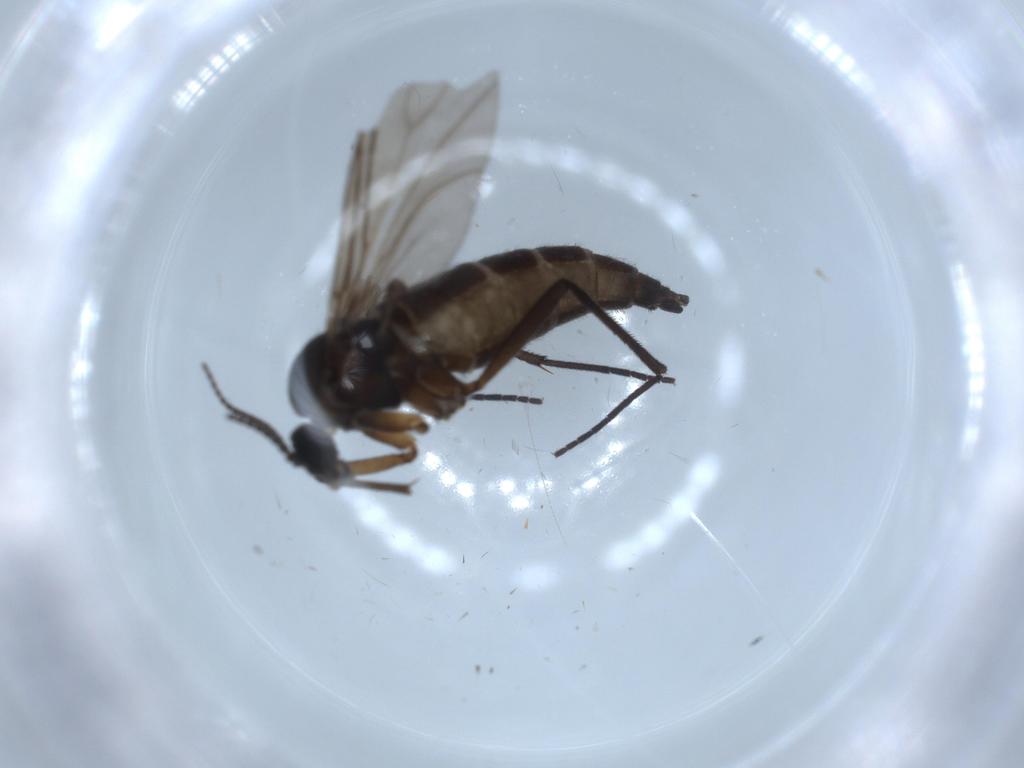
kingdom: Animalia
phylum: Arthropoda
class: Insecta
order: Diptera
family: Sciaridae
